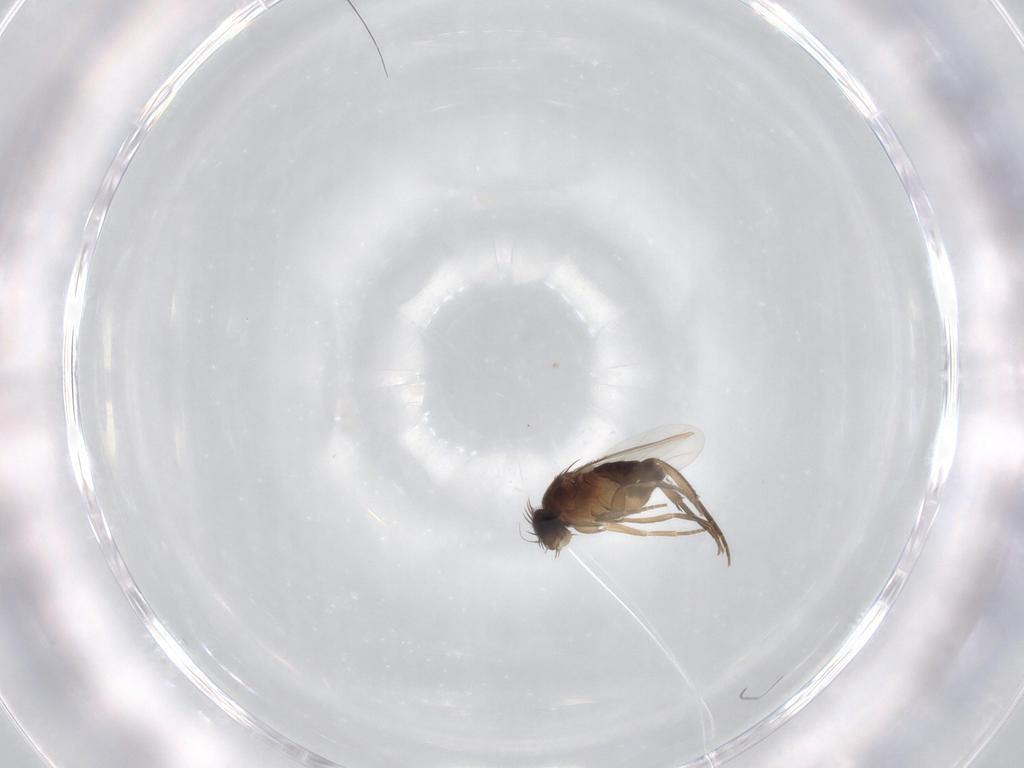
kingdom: Animalia
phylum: Arthropoda
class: Insecta
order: Diptera
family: Phoridae
